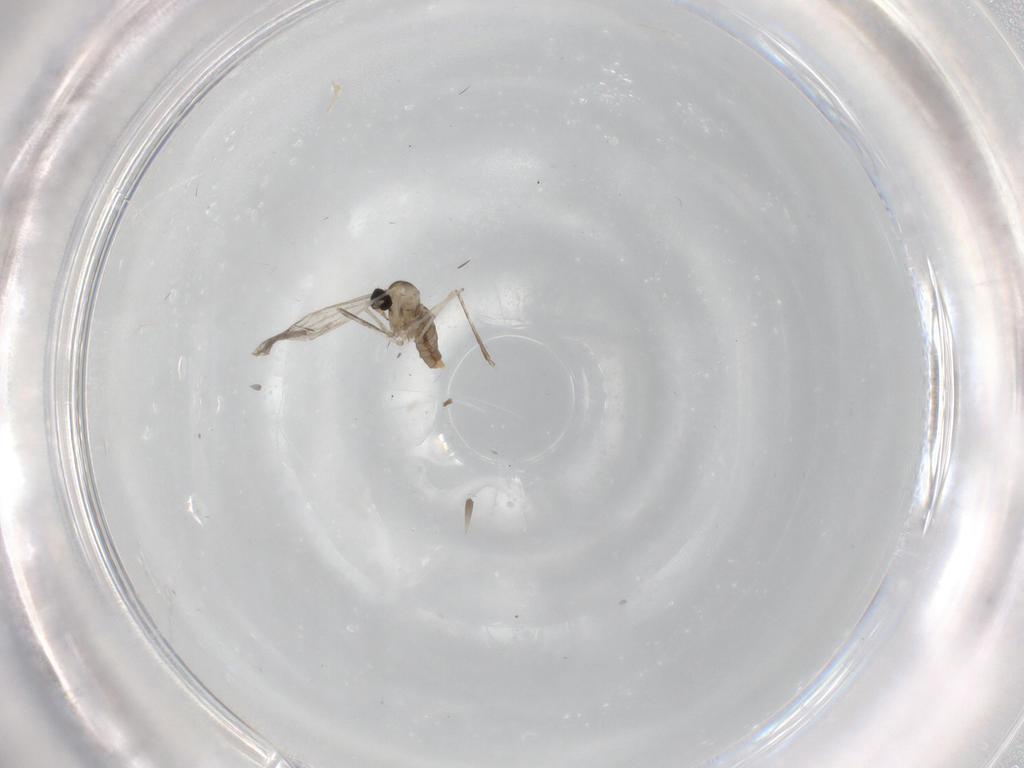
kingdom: Animalia
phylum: Arthropoda
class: Insecta
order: Diptera
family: Cecidomyiidae
